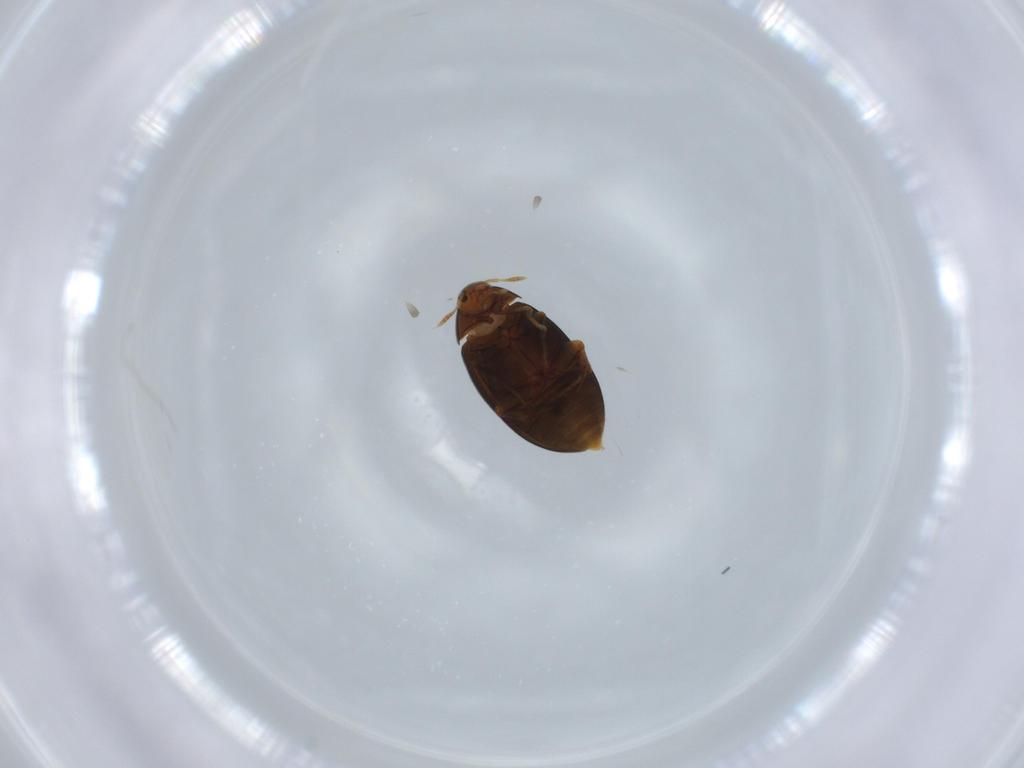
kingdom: Animalia
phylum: Arthropoda
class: Insecta
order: Coleoptera
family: Melandryidae
